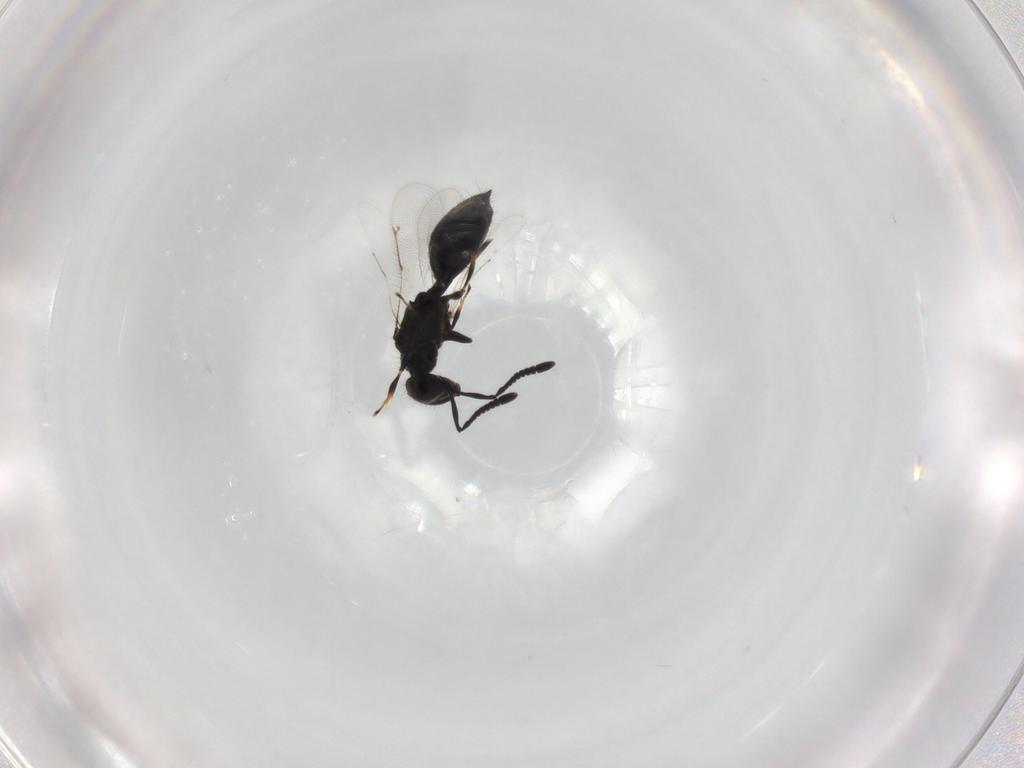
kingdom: Animalia
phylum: Arthropoda
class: Insecta
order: Hymenoptera
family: Spalangiidae
